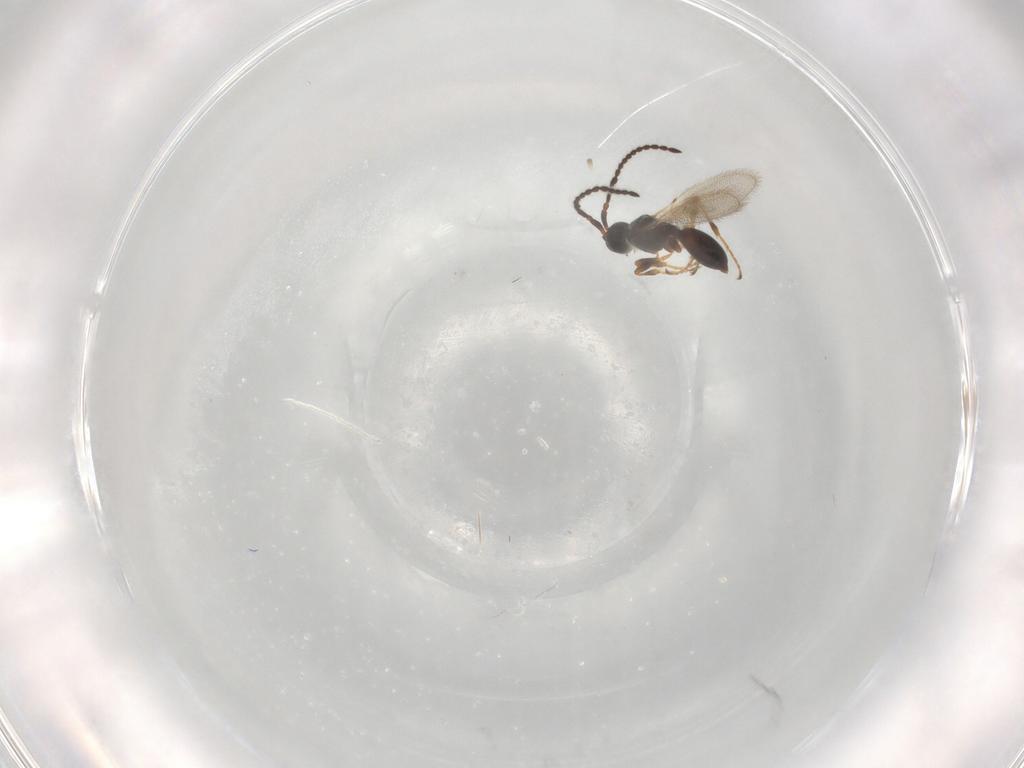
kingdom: Animalia
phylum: Arthropoda
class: Insecta
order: Hymenoptera
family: Diapriidae
